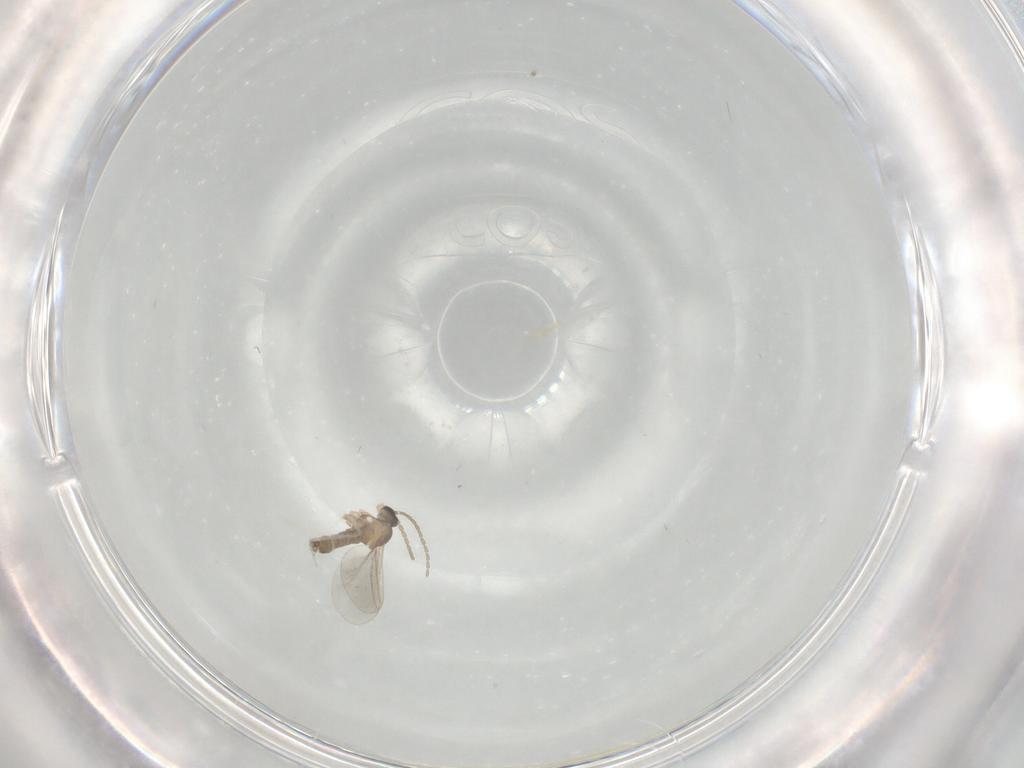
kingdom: Animalia
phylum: Arthropoda
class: Insecta
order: Diptera
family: Cecidomyiidae
